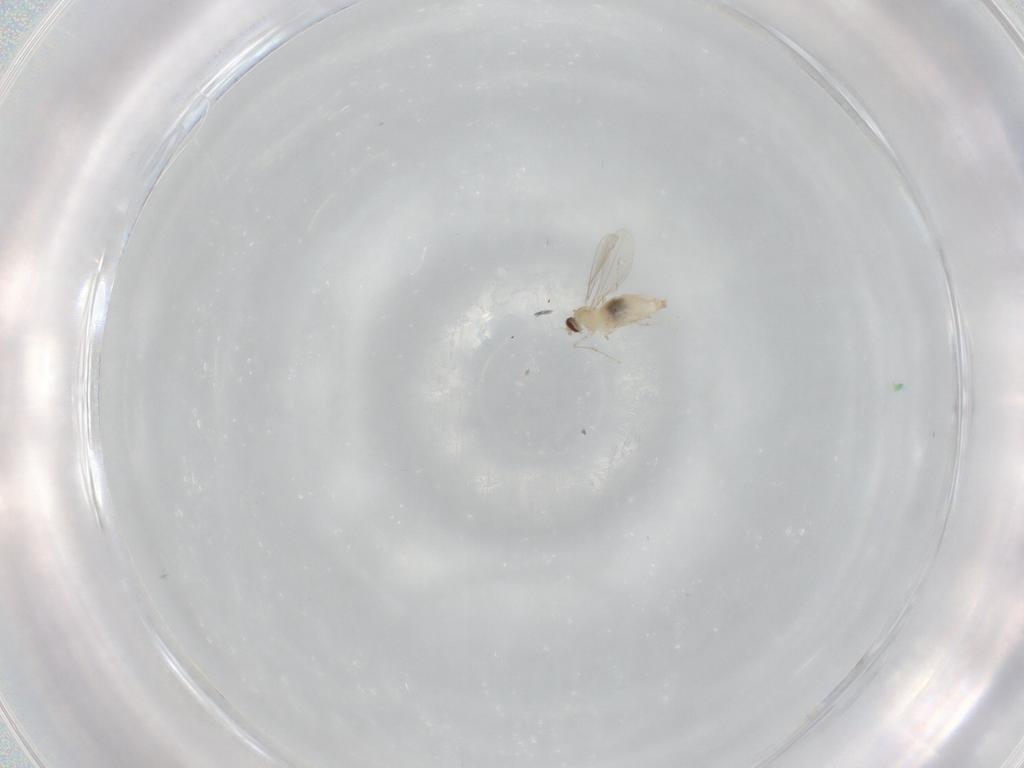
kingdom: Animalia
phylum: Arthropoda
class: Insecta
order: Diptera
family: Cecidomyiidae
